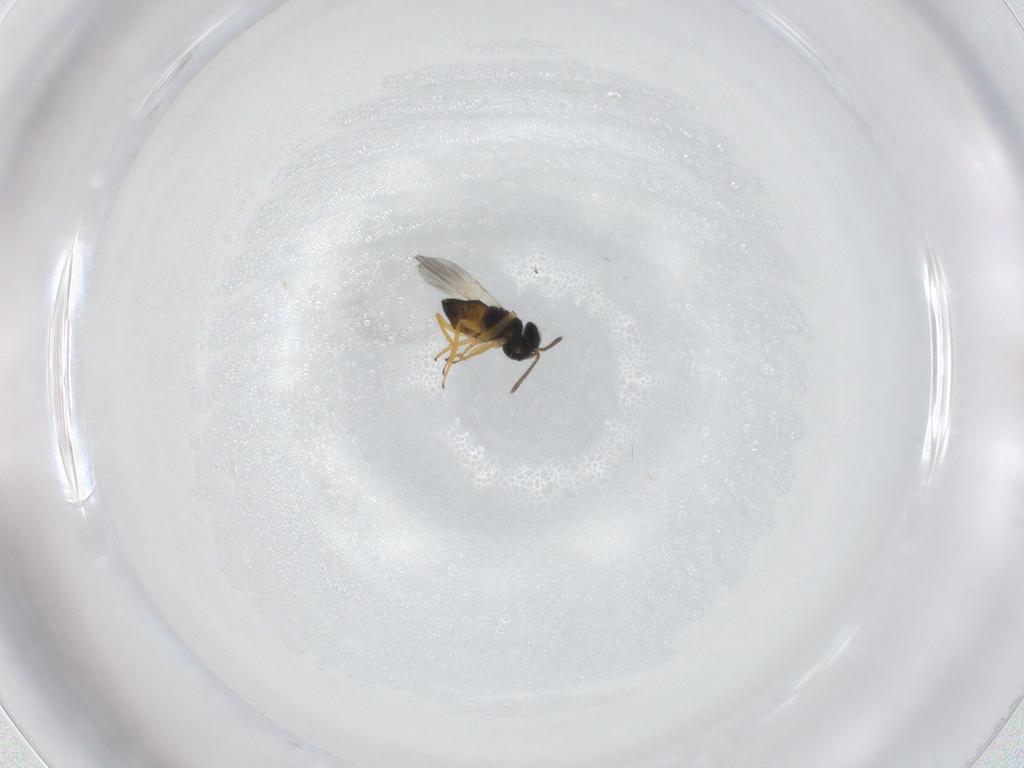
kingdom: Animalia
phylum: Arthropoda
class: Insecta
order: Hymenoptera
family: Encyrtidae
